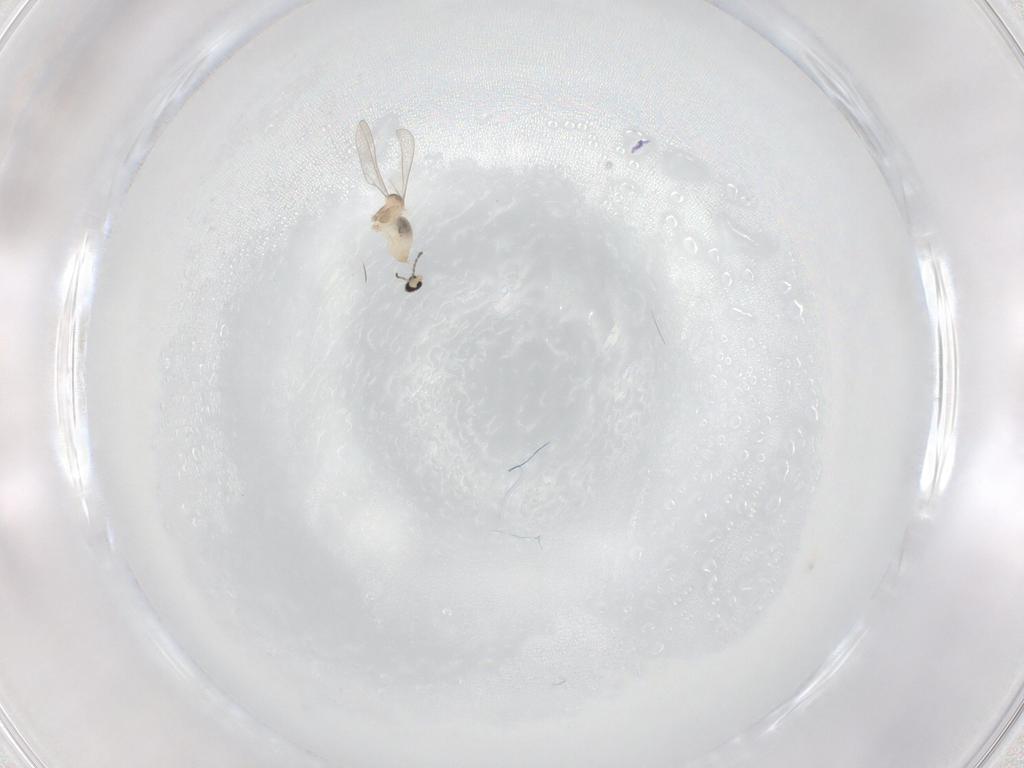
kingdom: Animalia
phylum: Arthropoda
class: Insecta
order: Diptera
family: Cecidomyiidae
